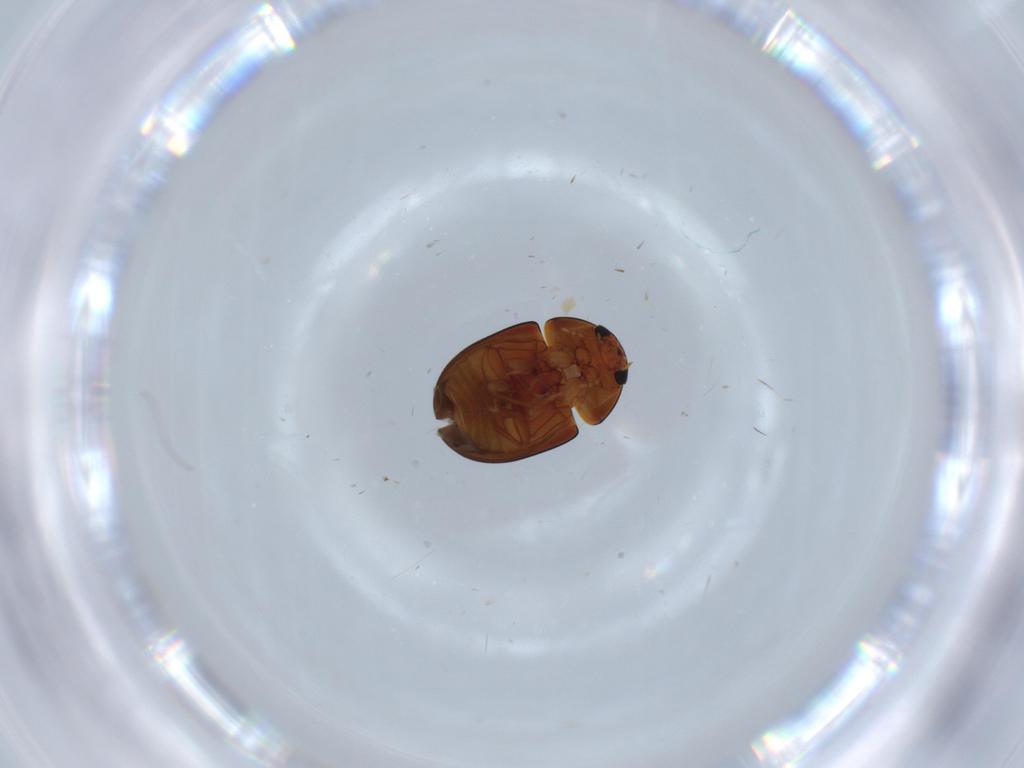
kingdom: Animalia
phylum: Arthropoda
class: Insecta
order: Coleoptera
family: Phalacridae
